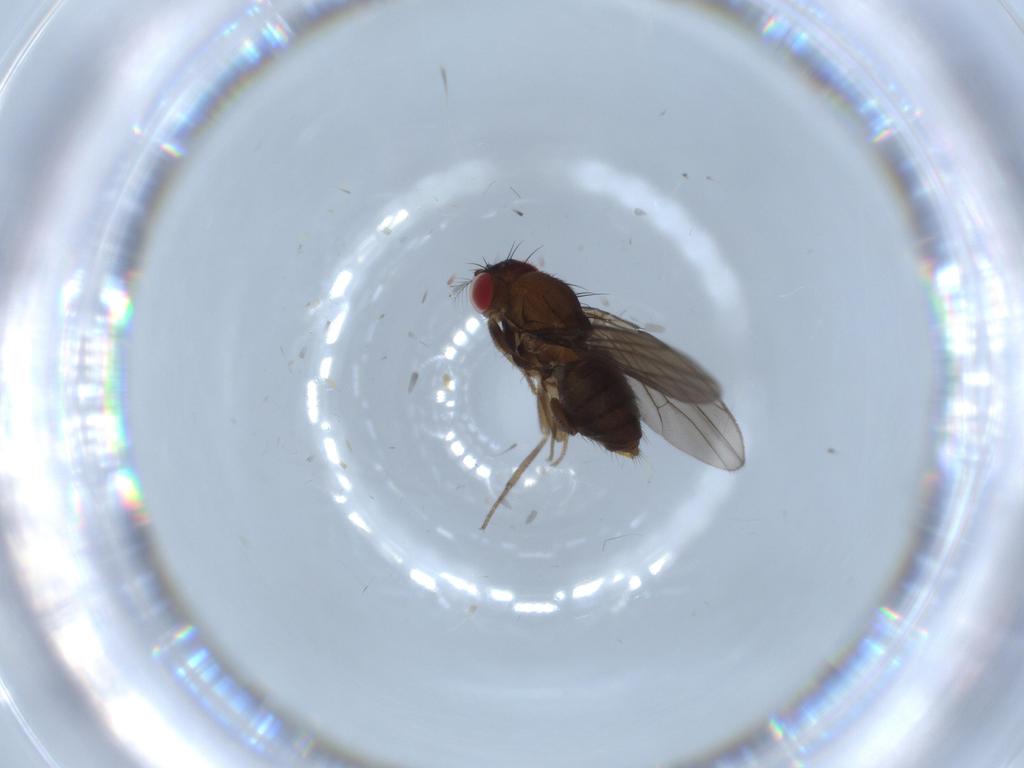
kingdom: Animalia
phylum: Arthropoda
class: Insecta
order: Diptera
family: Drosophilidae
